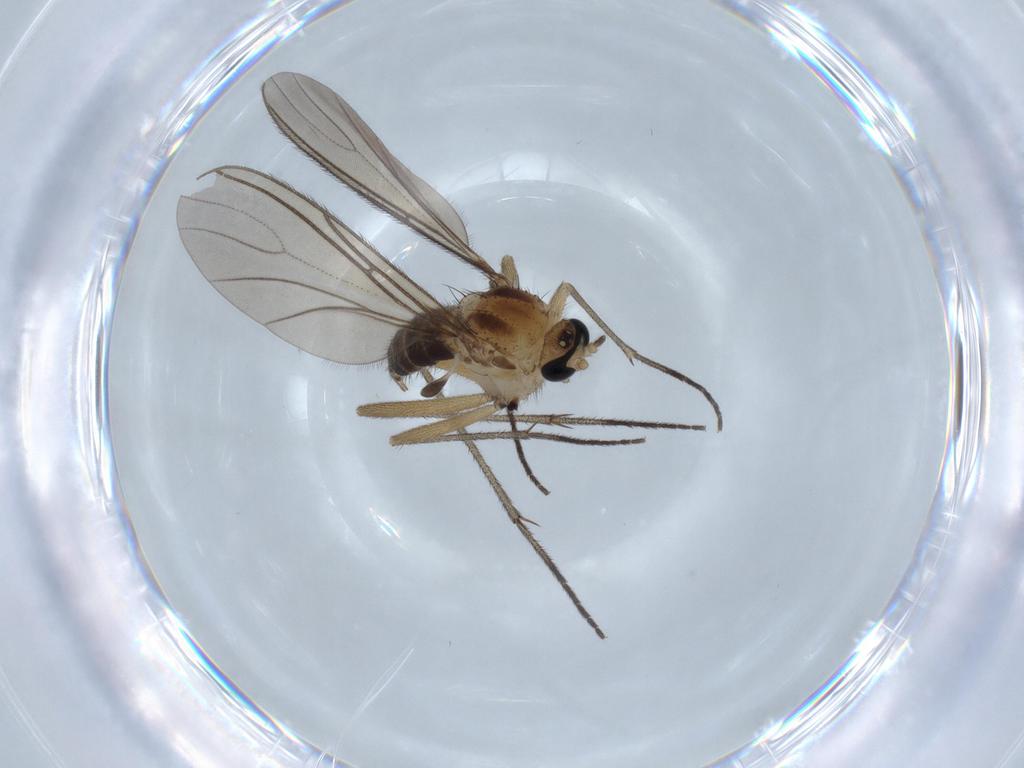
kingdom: Animalia
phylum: Arthropoda
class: Insecta
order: Diptera
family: Sciaridae
